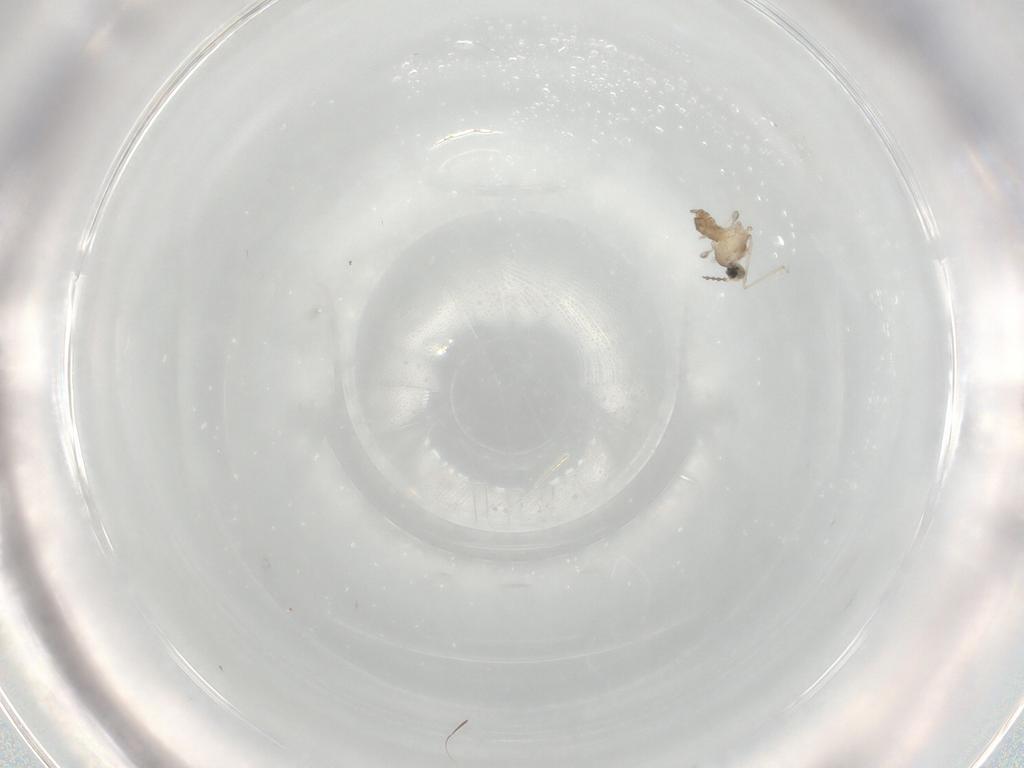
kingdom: Animalia
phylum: Arthropoda
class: Insecta
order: Diptera
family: Cecidomyiidae
